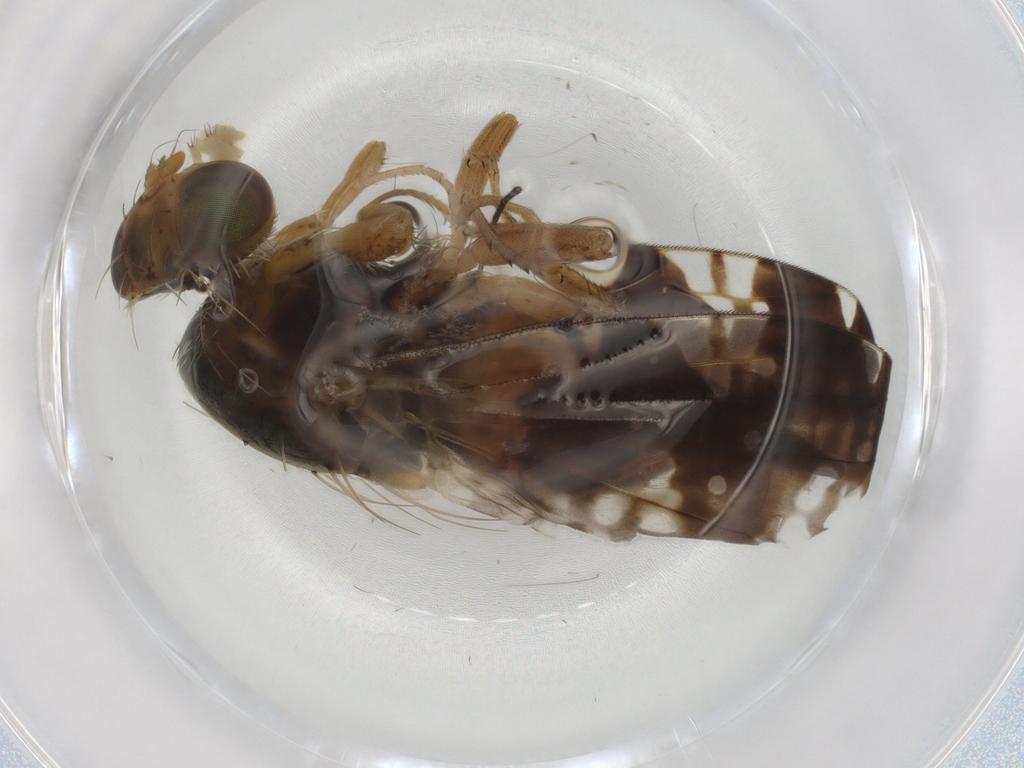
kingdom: Animalia
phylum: Arthropoda
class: Insecta
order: Diptera
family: Tephritidae
